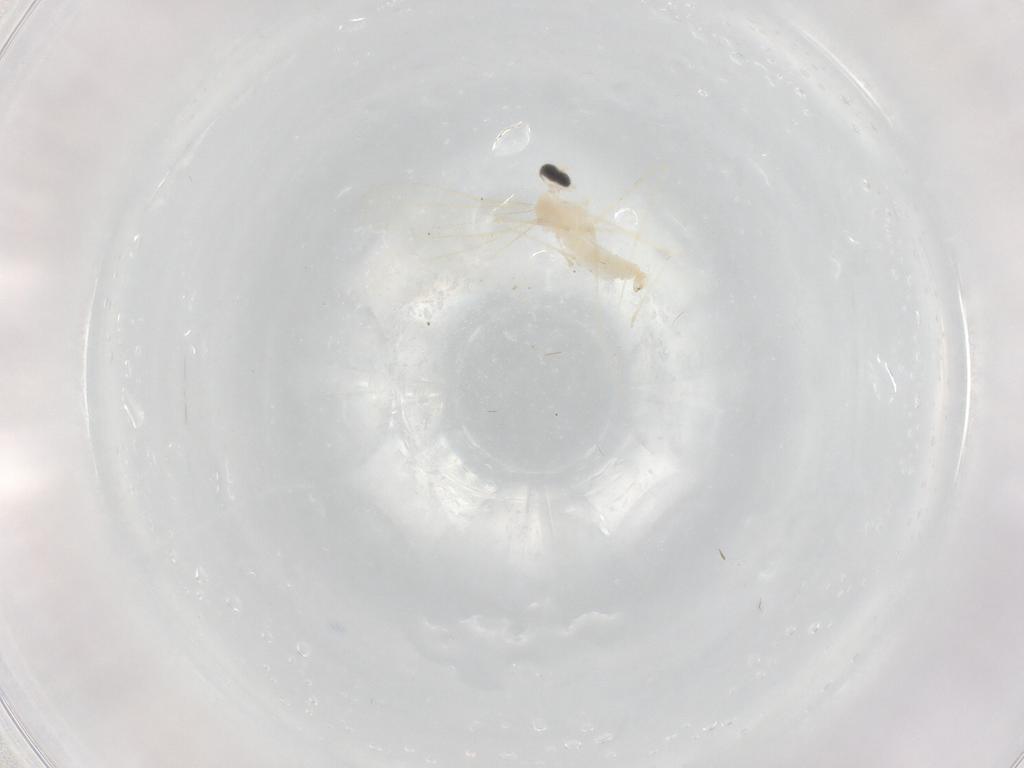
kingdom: Animalia
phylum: Arthropoda
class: Insecta
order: Diptera
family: Cecidomyiidae
